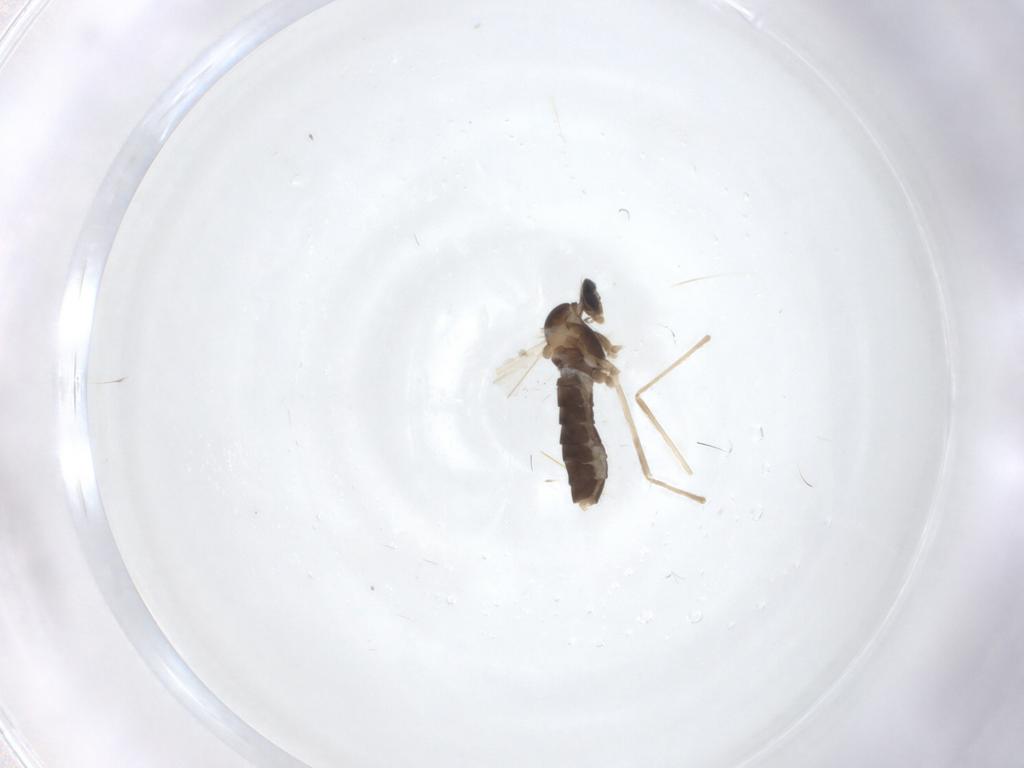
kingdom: Animalia
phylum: Arthropoda
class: Insecta
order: Diptera
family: Cecidomyiidae
